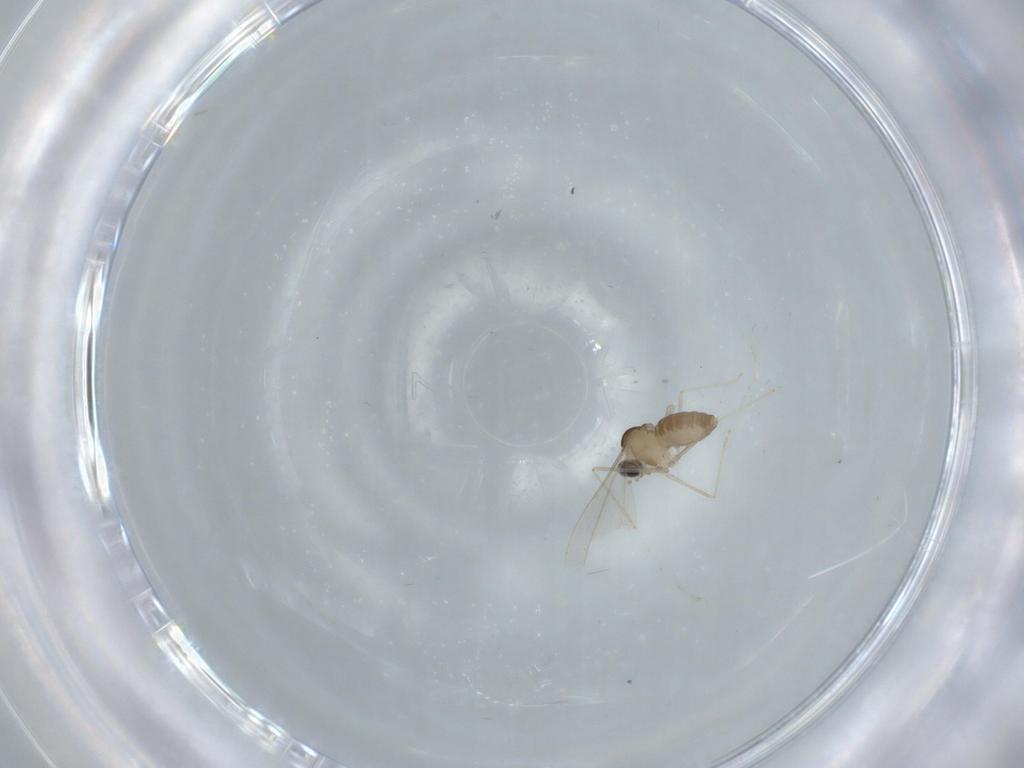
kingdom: Animalia
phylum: Arthropoda
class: Insecta
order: Diptera
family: Cecidomyiidae
